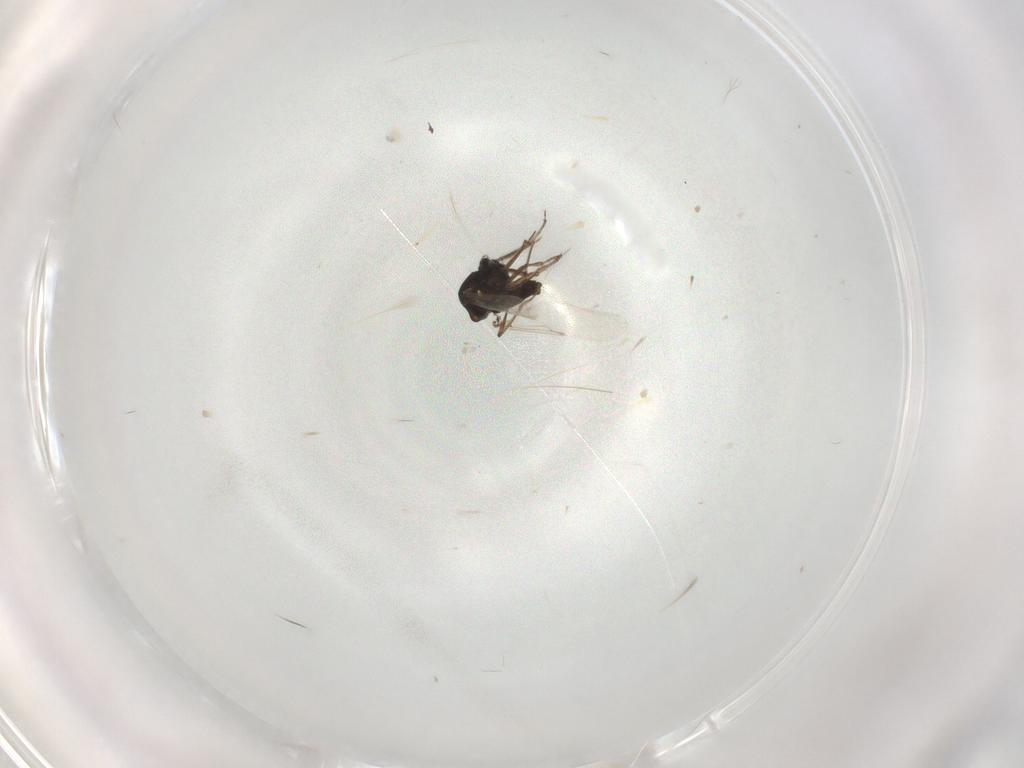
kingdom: Animalia
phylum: Arthropoda
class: Insecta
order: Diptera
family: Ceratopogonidae
